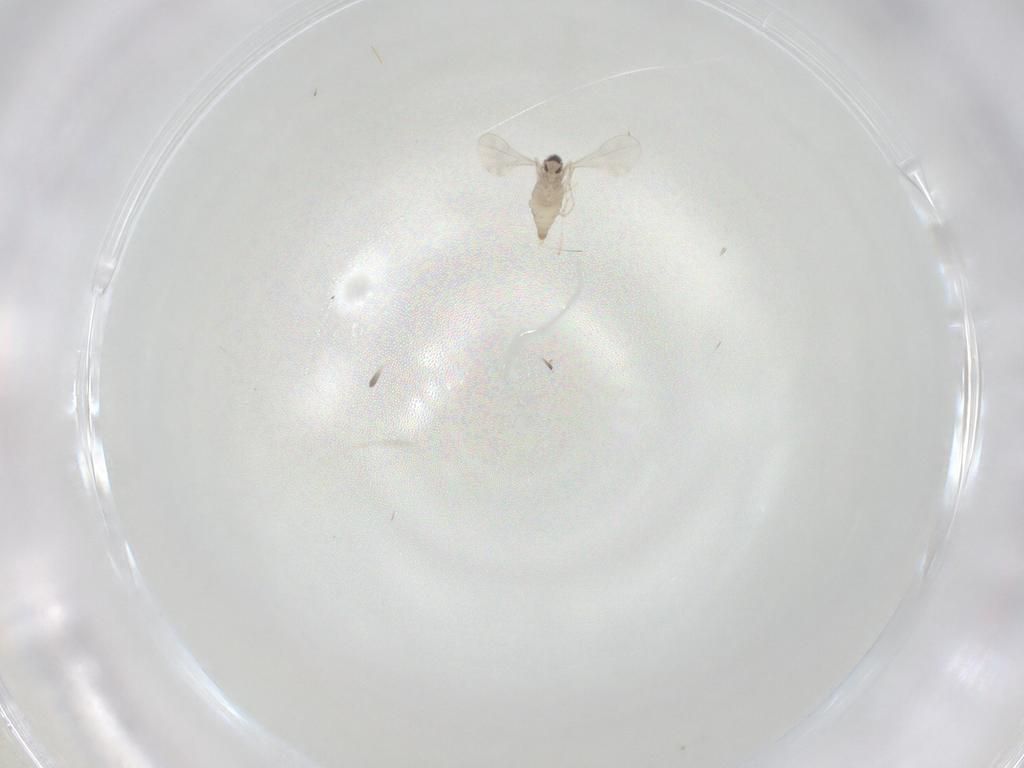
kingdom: Animalia
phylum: Arthropoda
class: Insecta
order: Diptera
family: Cecidomyiidae
